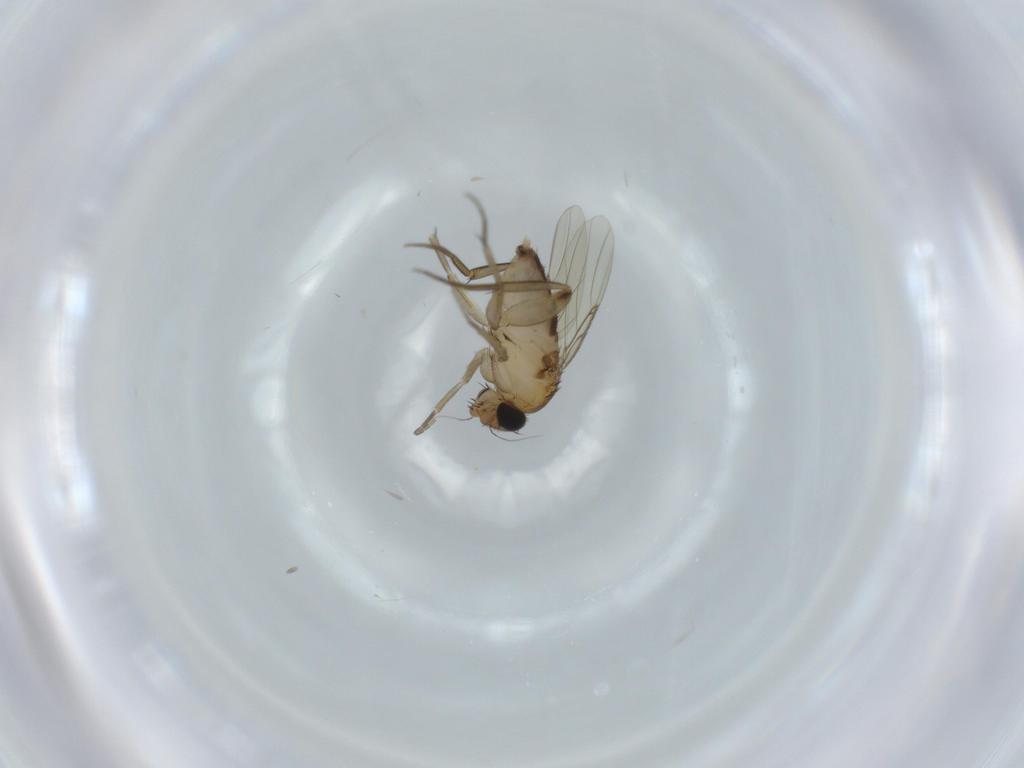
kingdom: Animalia
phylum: Arthropoda
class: Insecta
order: Diptera
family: Phoridae
